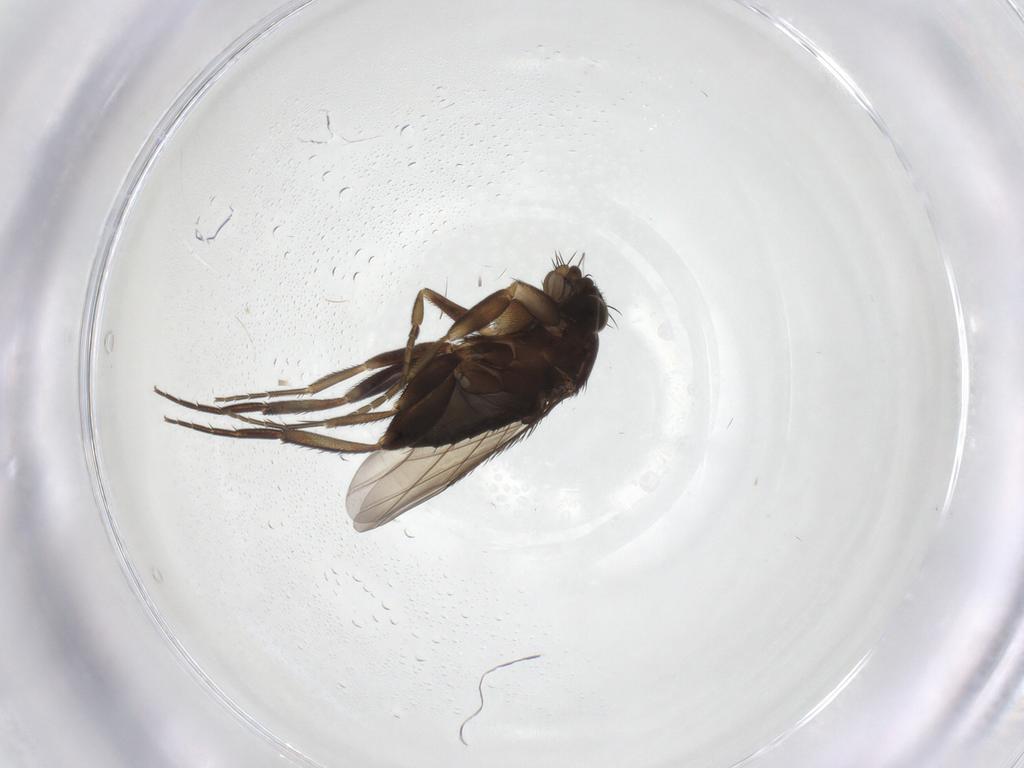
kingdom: Animalia
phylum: Arthropoda
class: Insecta
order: Diptera
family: Phoridae
